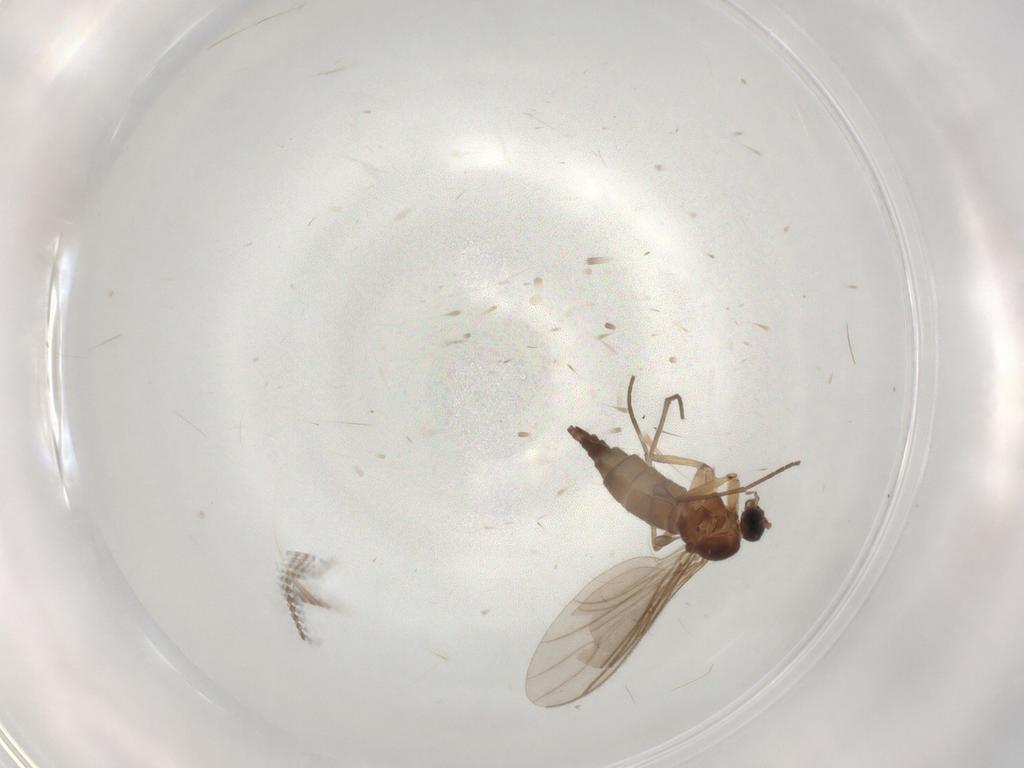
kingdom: Animalia
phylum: Arthropoda
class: Insecta
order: Diptera
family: Sciaridae
